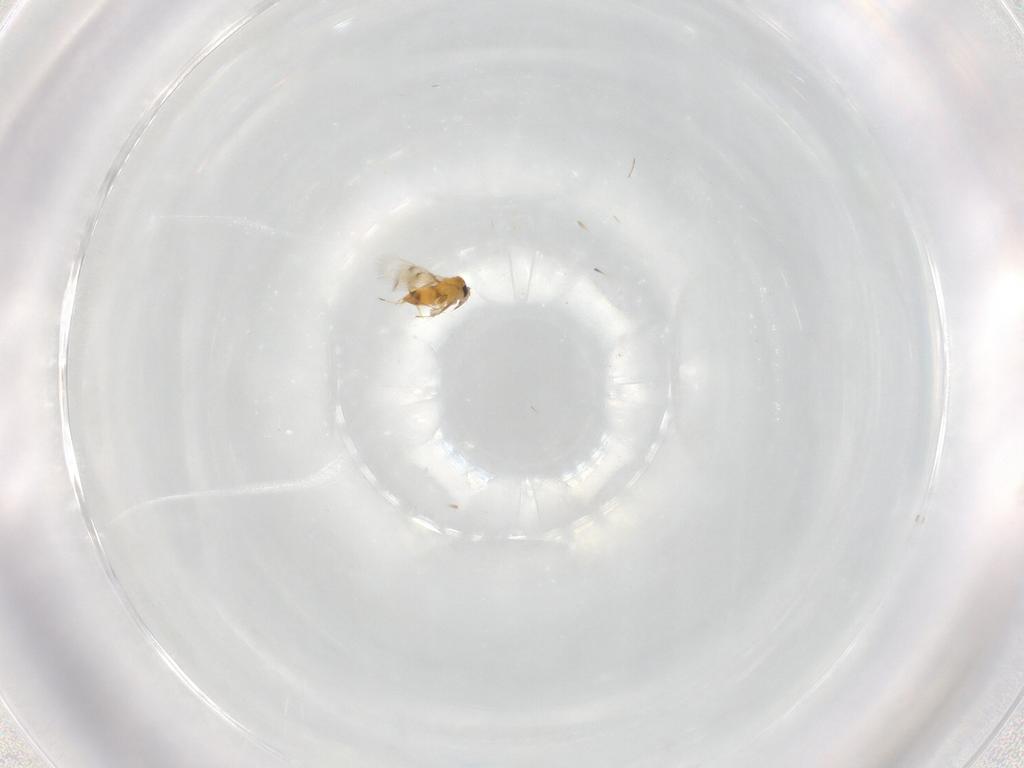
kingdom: Animalia
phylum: Arthropoda
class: Insecta
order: Hymenoptera
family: Aphelinidae
